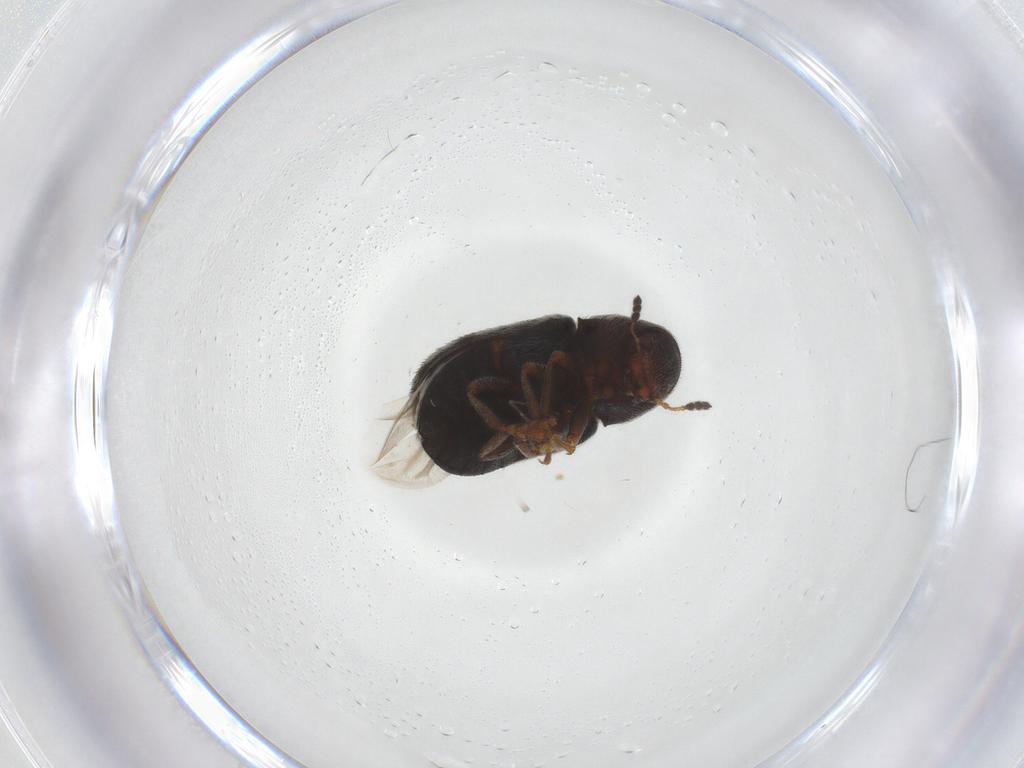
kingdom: Animalia
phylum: Arthropoda
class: Insecta
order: Coleoptera
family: Anthribidae
